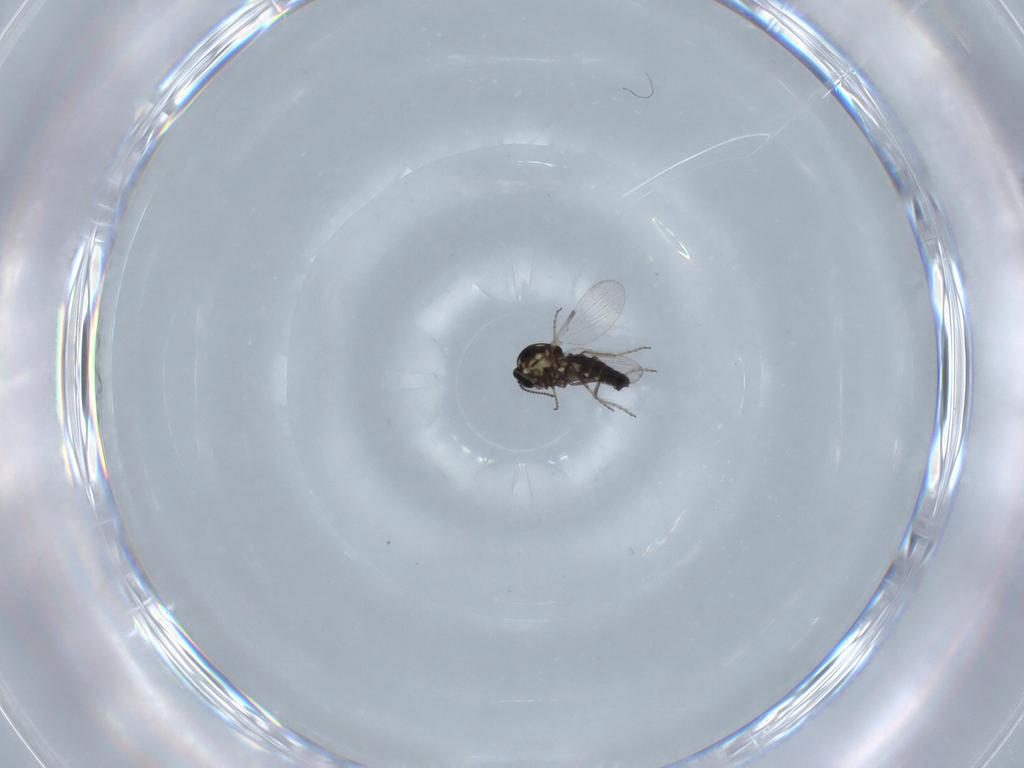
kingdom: Animalia
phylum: Arthropoda
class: Insecta
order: Diptera
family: Ceratopogonidae
